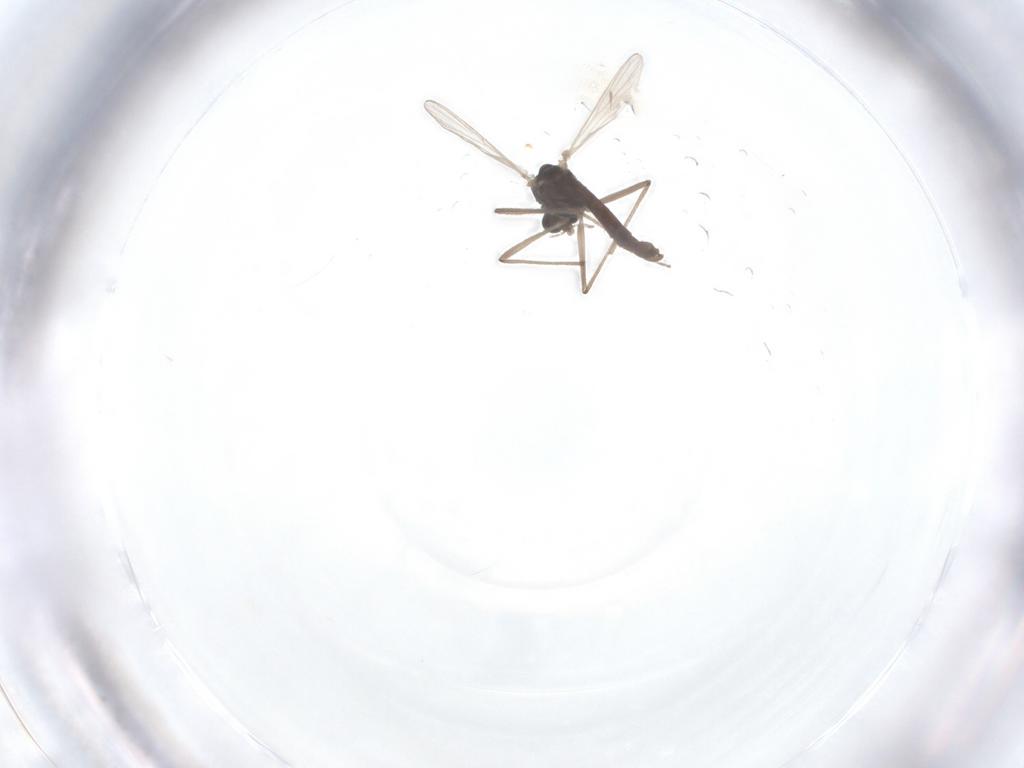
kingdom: Animalia
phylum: Arthropoda
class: Insecta
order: Diptera
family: Chironomidae
